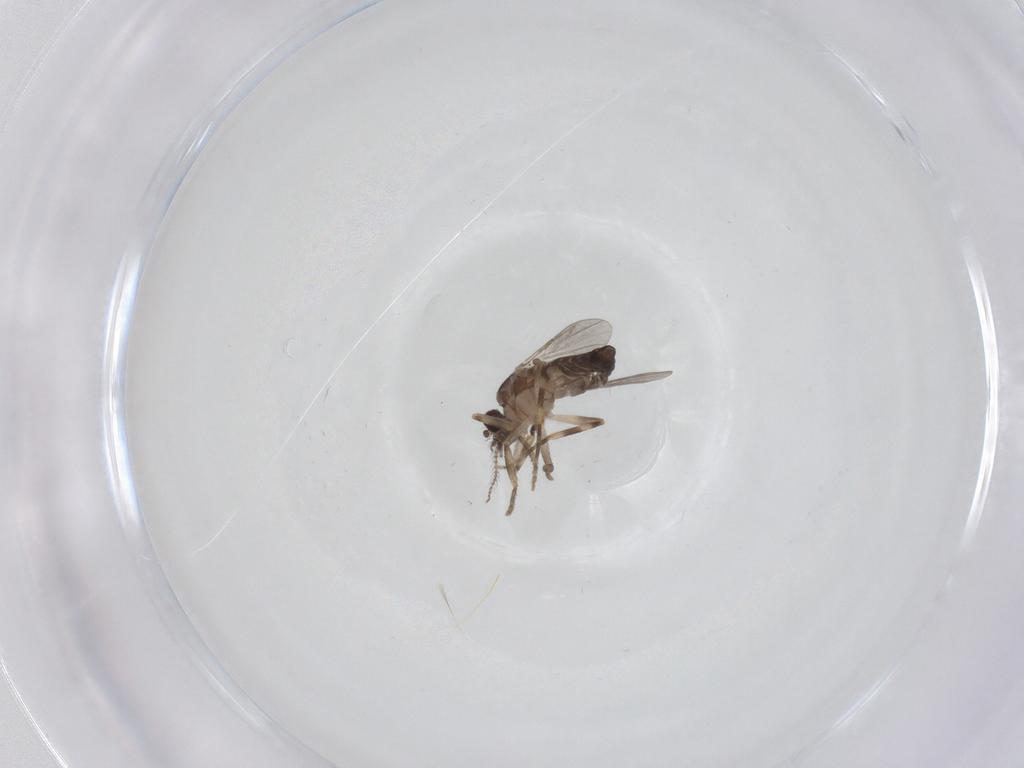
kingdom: Animalia
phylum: Arthropoda
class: Insecta
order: Diptera
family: Ceratopogonidae
